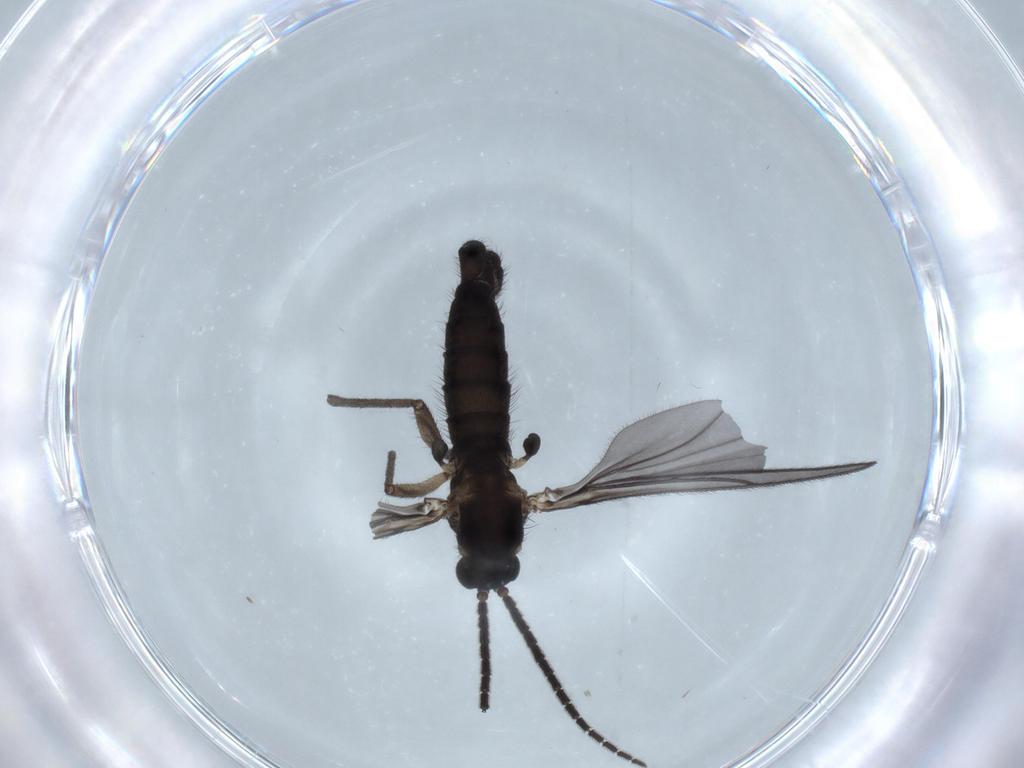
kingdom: Animalia
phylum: Arthropoda
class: Insecta
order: Diptera
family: Sciaridae
